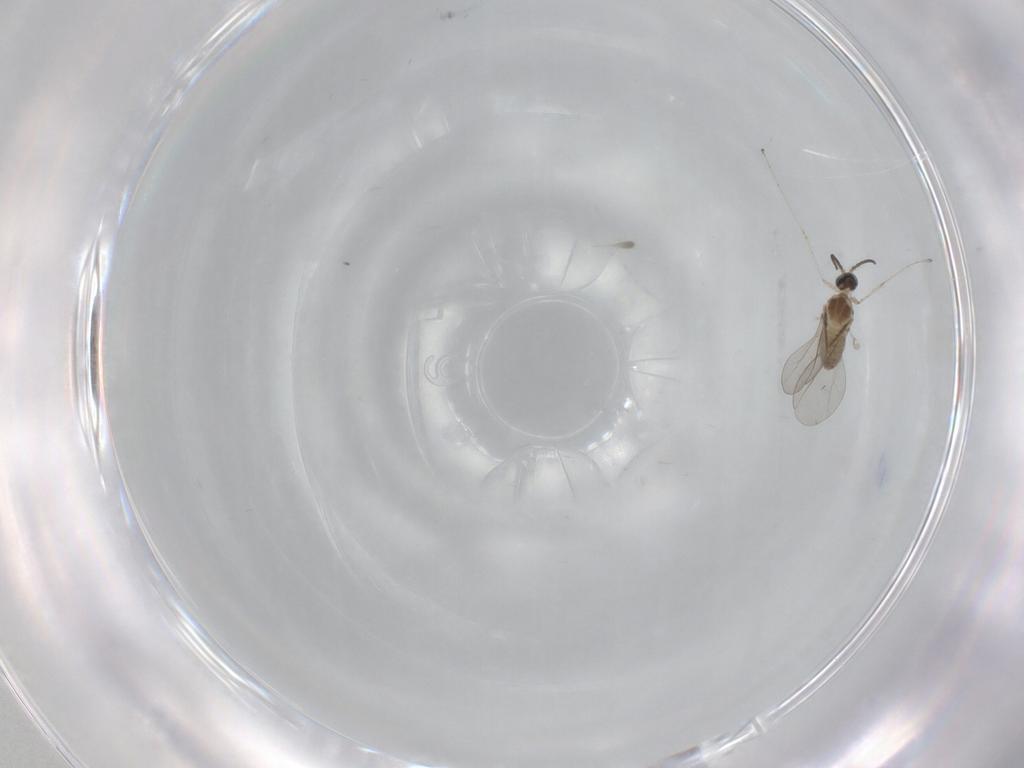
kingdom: Animalia
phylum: Arthropoda
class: Insecta
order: Diptera
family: Cecidomyiidae
